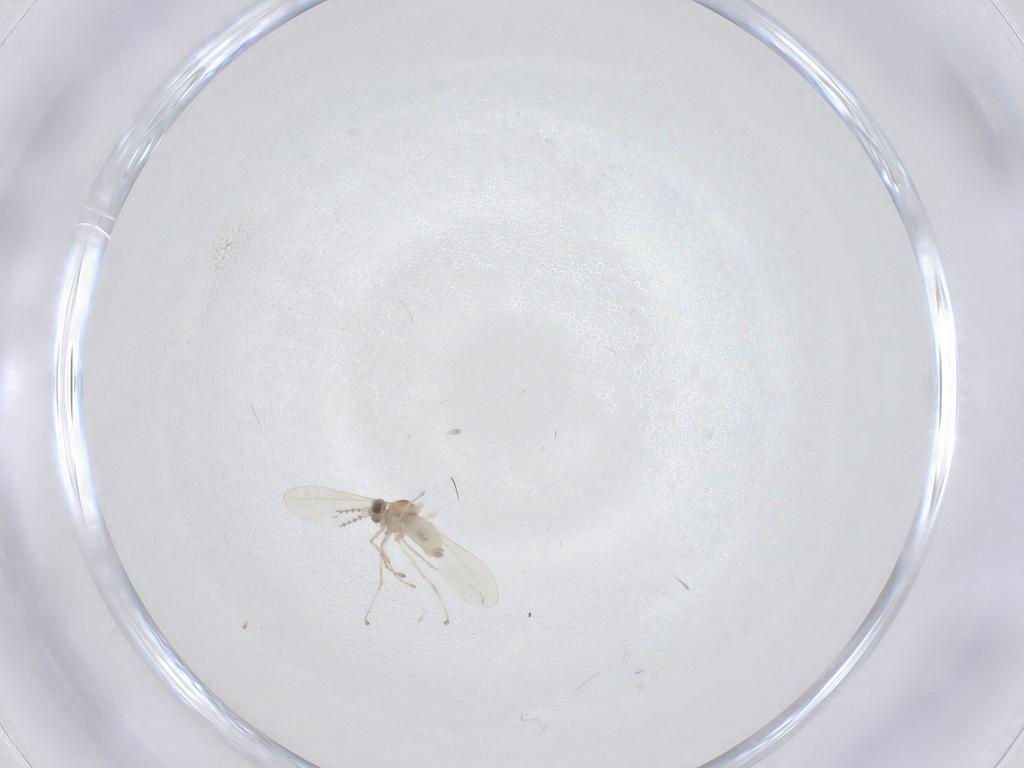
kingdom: Animalia
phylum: Arthropoda
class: Insecta
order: Diptera
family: Cecidomyiidae
